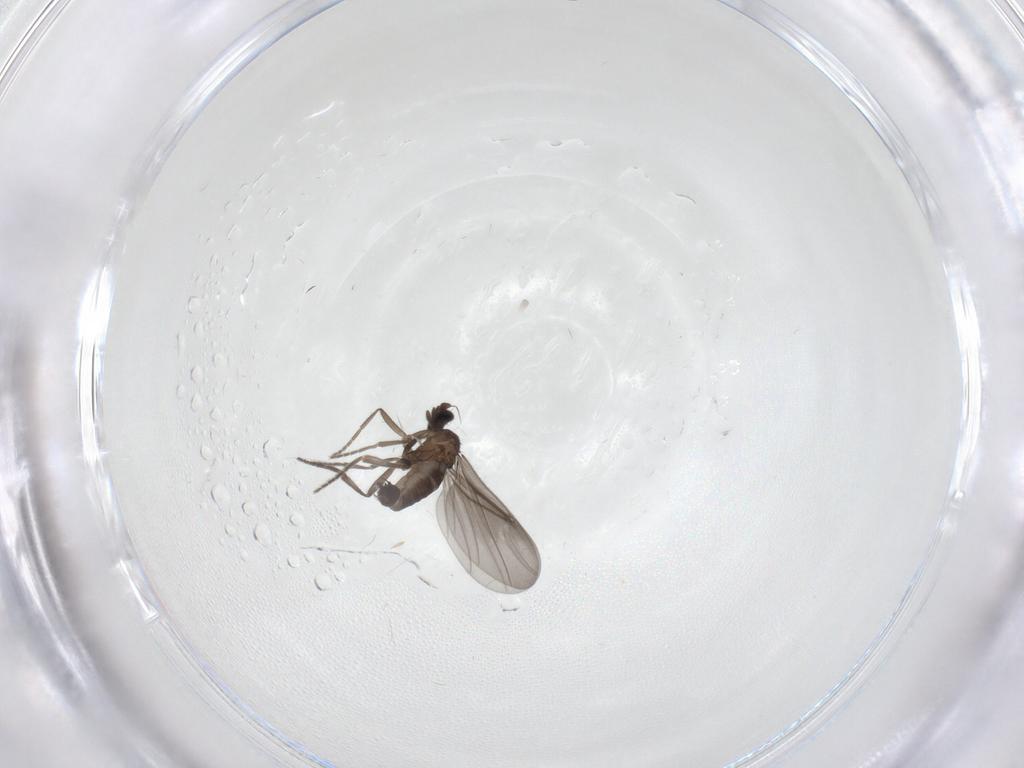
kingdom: Animalia
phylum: Arthropoda
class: Insecta
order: Diptera
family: Phoridae
